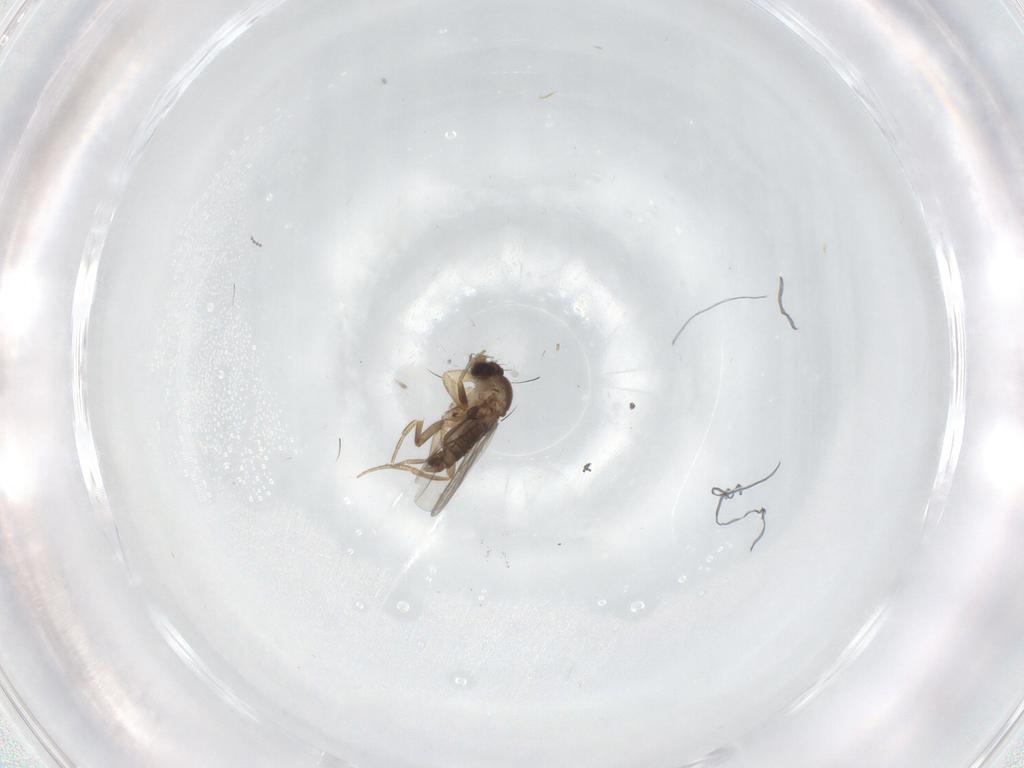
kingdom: Animalia
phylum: Arthropoda
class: Insecta
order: Diptera
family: Phoridae
